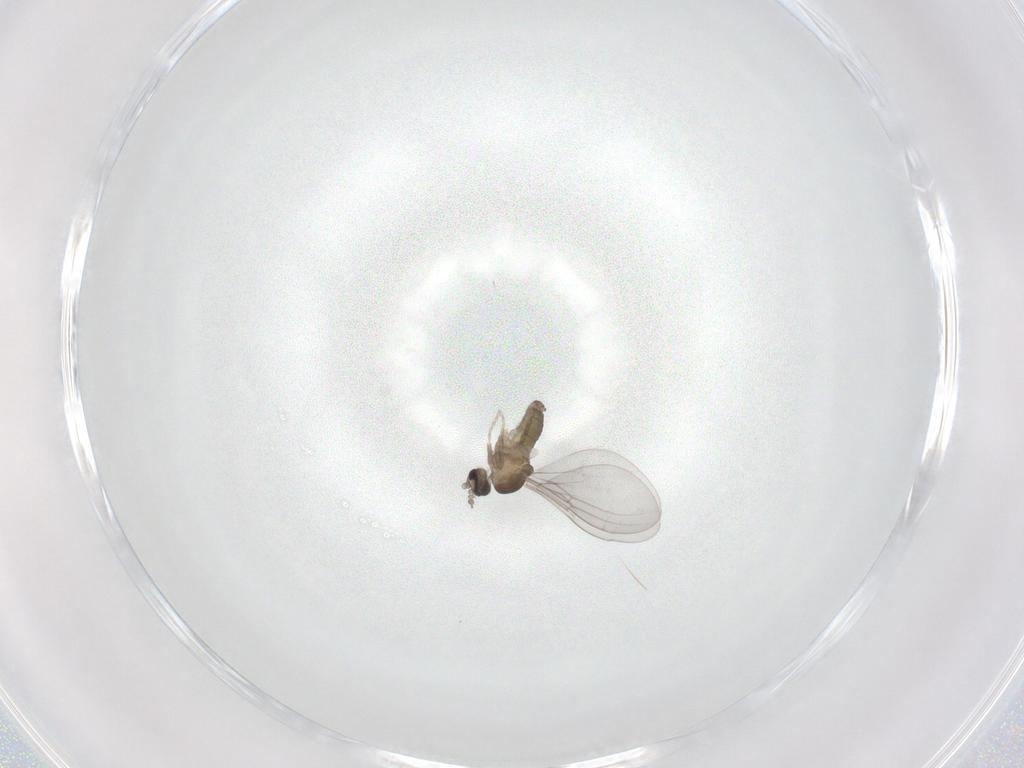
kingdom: Animalia
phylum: Arthropoda
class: Insecta
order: Diptera
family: Cecidomyiidae
